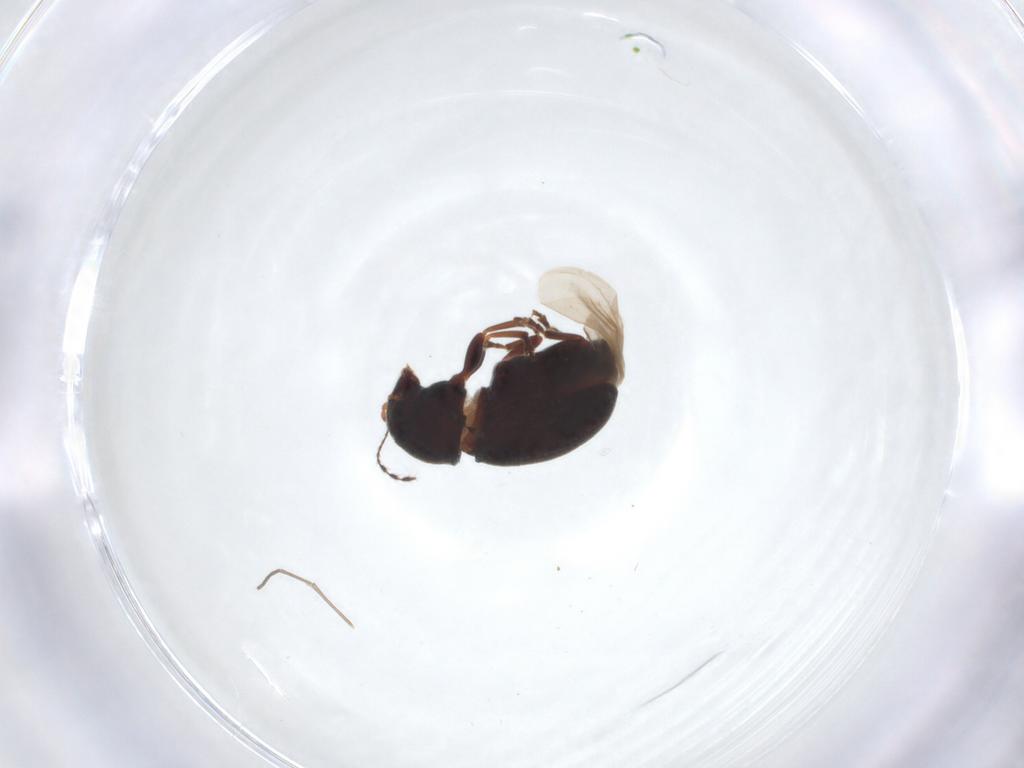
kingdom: Animalia
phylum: Arthropoda
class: Insecta
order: Coleoptera
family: Anthribidae
